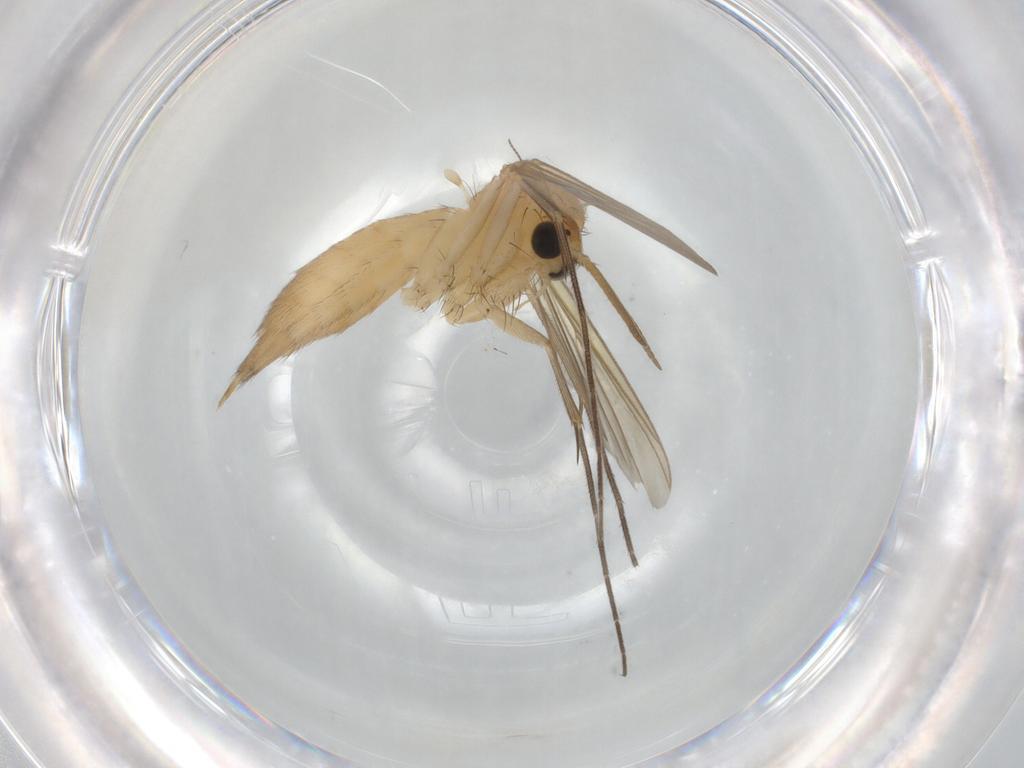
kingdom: Animalia
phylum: Arthropoda
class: Insecta
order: Diptera
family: Mycetophilidae
